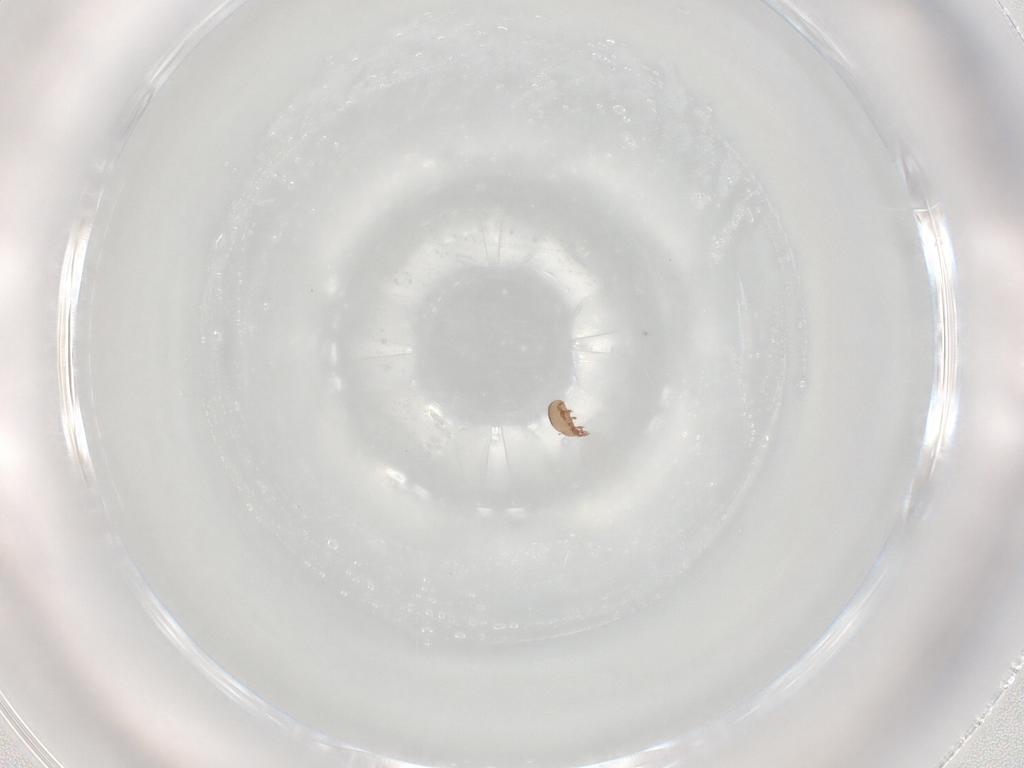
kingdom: Animalia
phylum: Arthropoda
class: Arachnida
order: Sarcoptiformes
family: Eremaeidae
